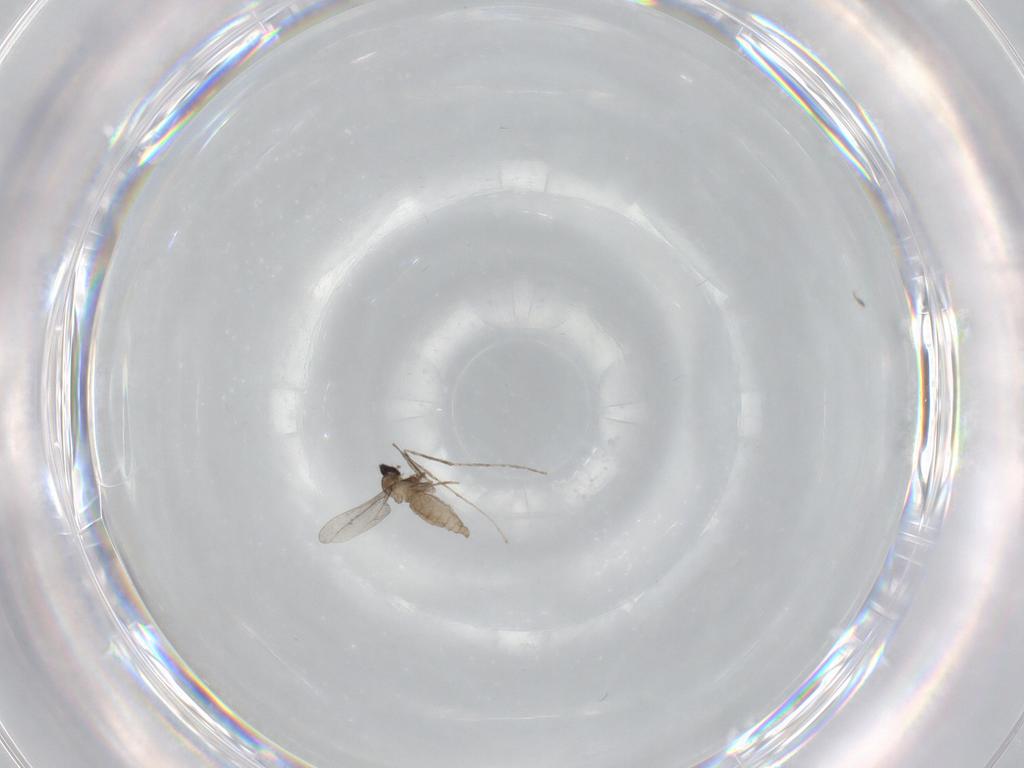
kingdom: Animalia
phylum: Arthropoda
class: Insecta
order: Diptera
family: Cecidomyiidae
